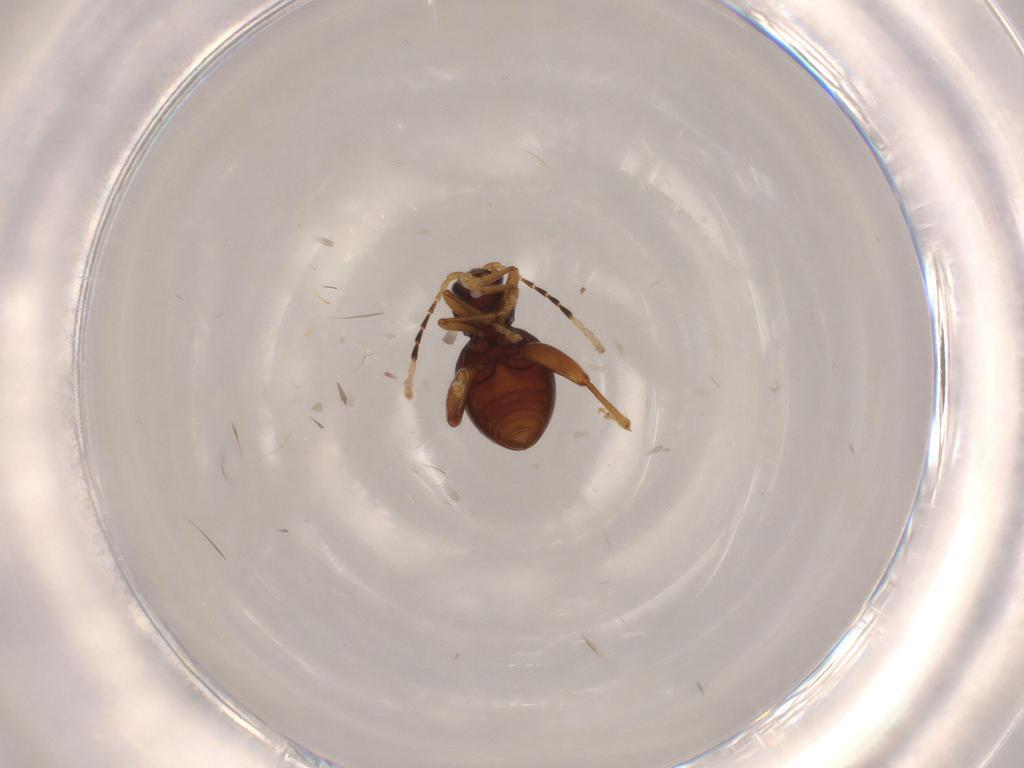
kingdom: Animalia
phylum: Arthropoda
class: Insecta
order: Coleoptera
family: Chrysomelidae
